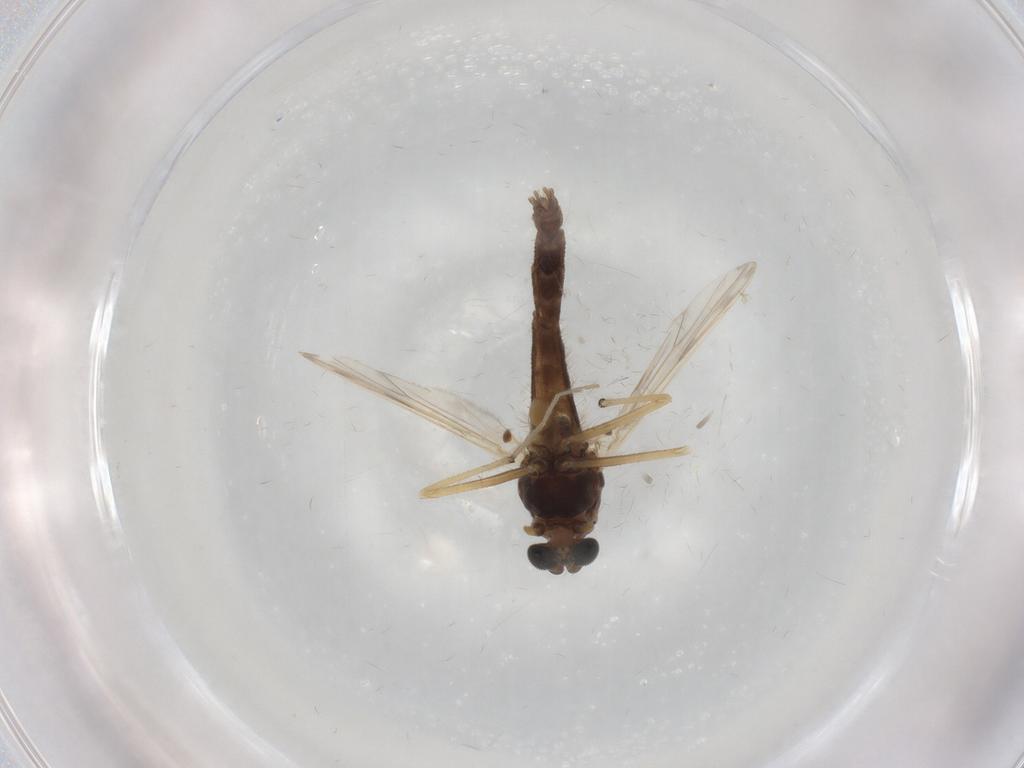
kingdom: Animalia
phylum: Arthropoda
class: Insecta
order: Diptera
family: Chironomidae
